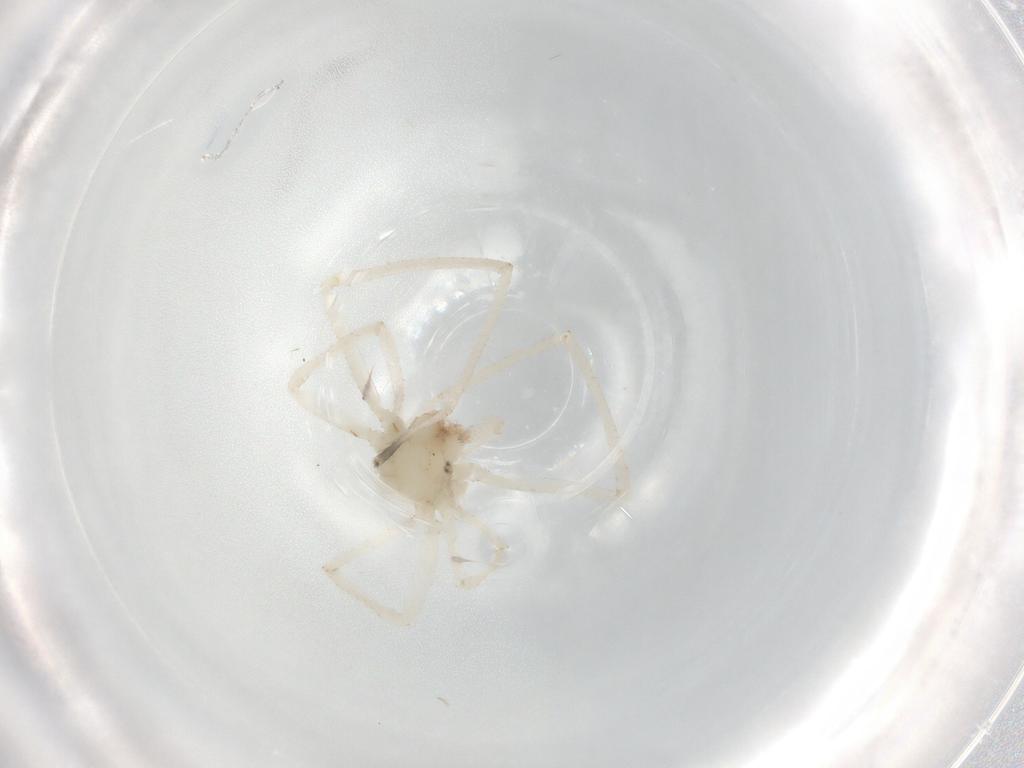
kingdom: Animalia
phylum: Arthropoda
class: Arachnida
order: Araneae
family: Cheiracanthiidae
